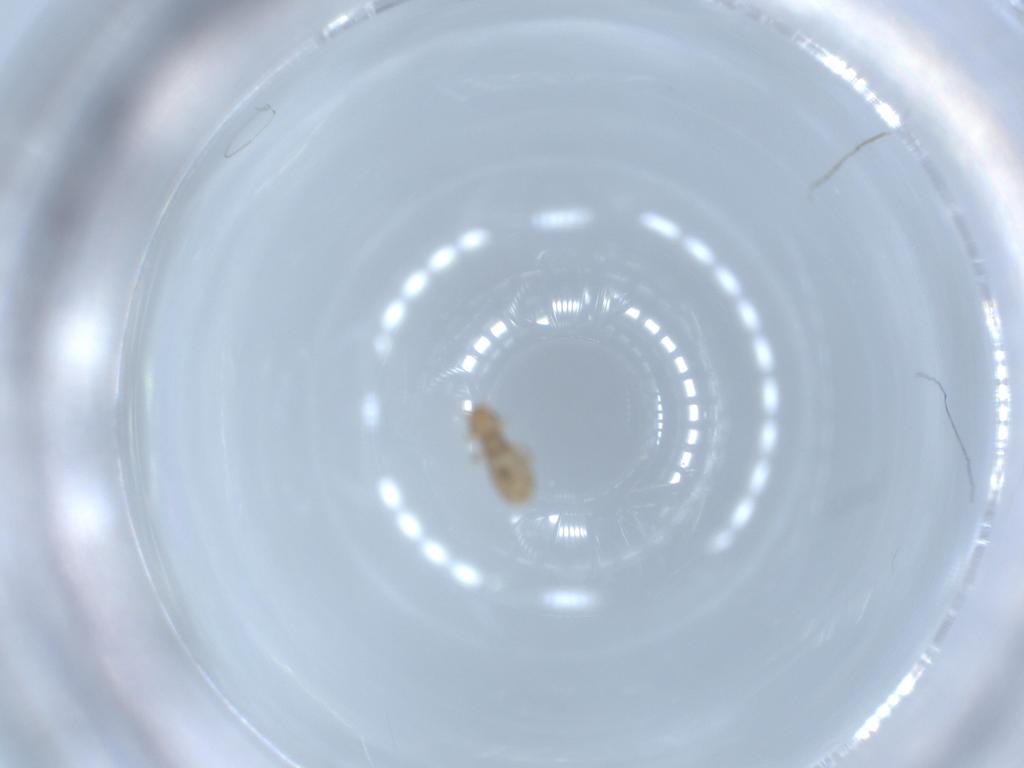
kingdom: Animalia
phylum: Arthropoda
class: Insecta
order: Psocodea
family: Liposcelididae
